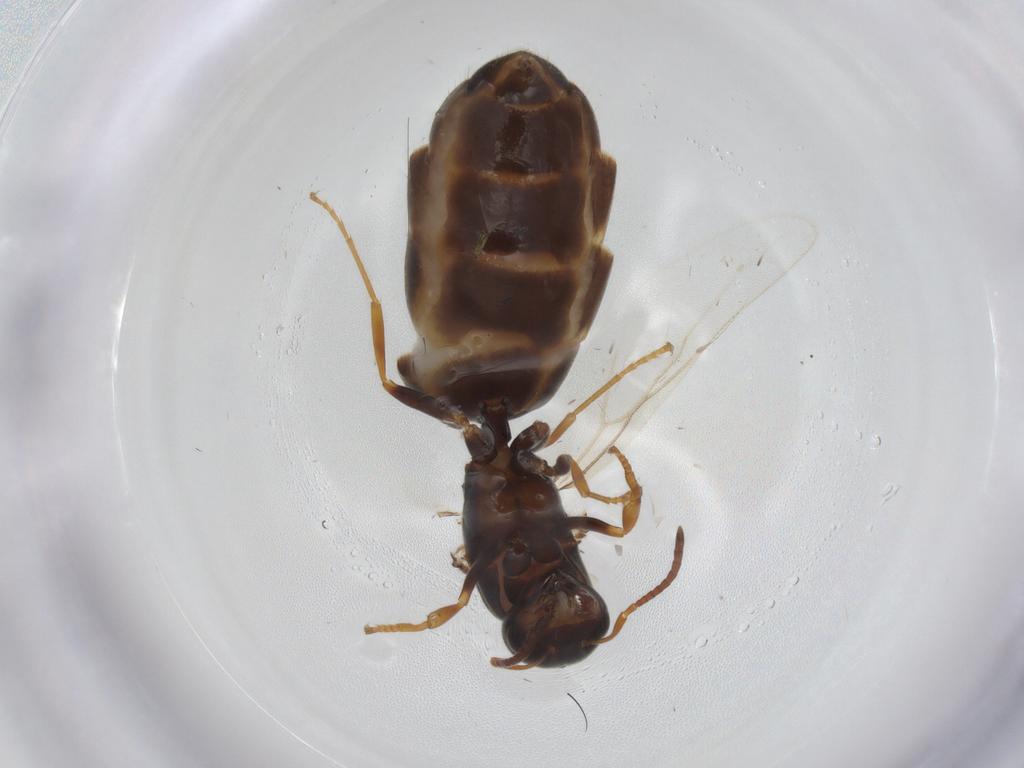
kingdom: Animalia
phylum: Arthropoda
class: Insecta
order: Hymenoptera
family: Formicidae
